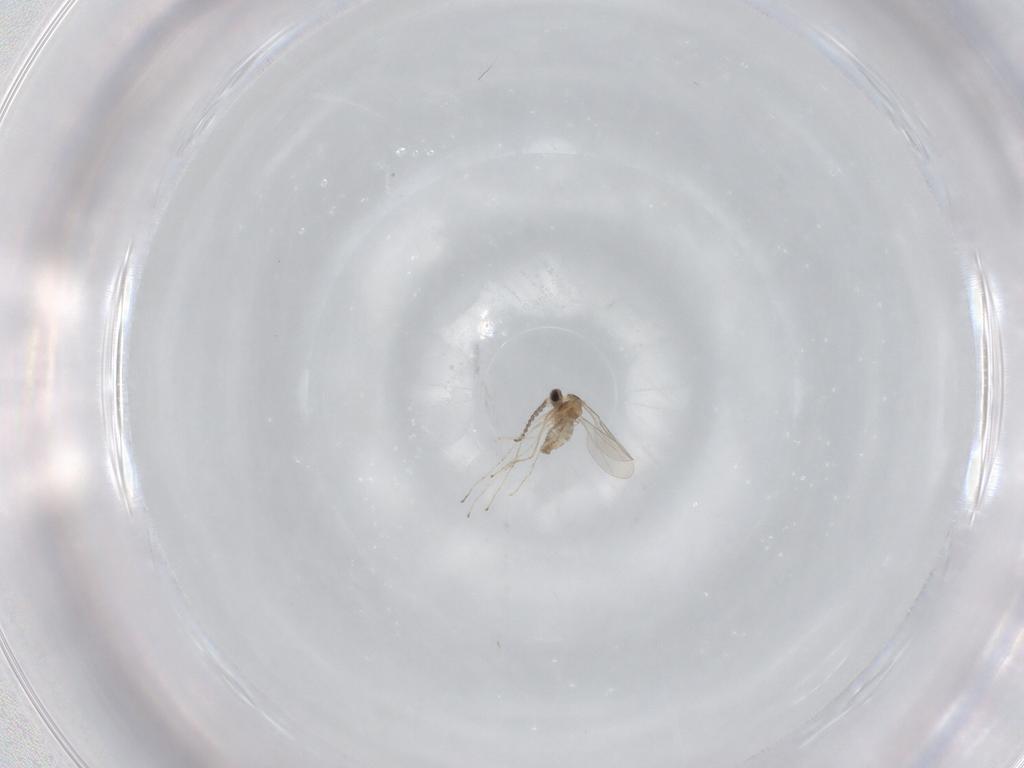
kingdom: Animalia
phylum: Arthropoda
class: Insecta
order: Diptera
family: Cecidomyiidae
